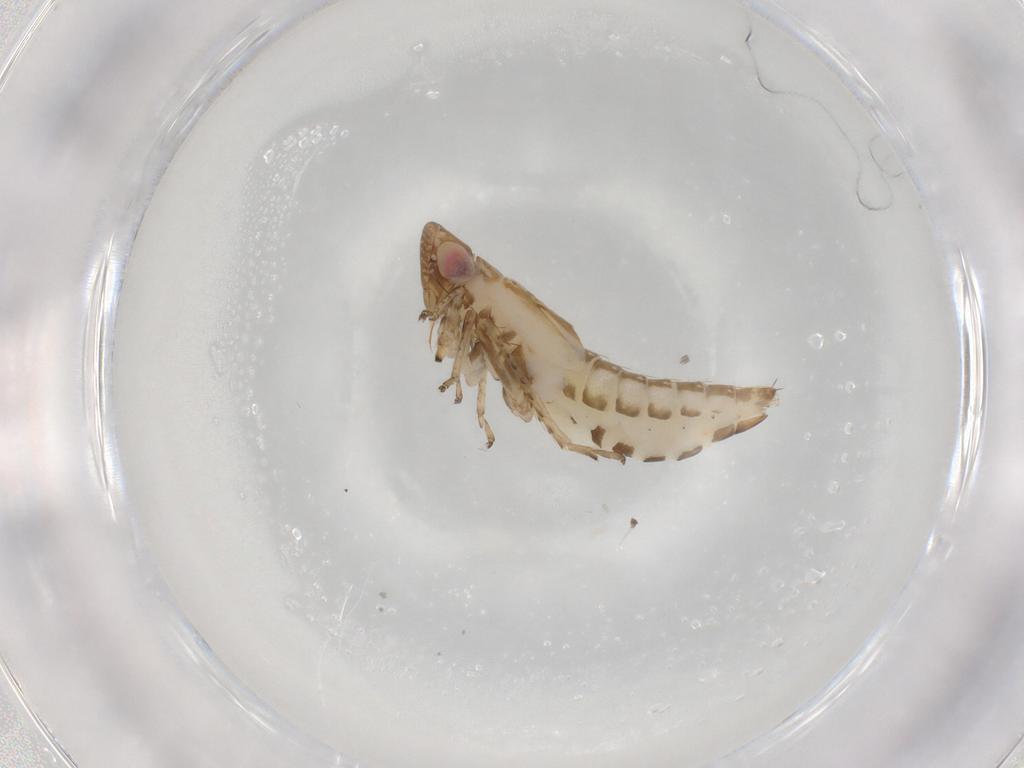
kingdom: Animalia
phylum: Arthropoda
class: Insecta
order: Hemiptera
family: Cicadellidae
